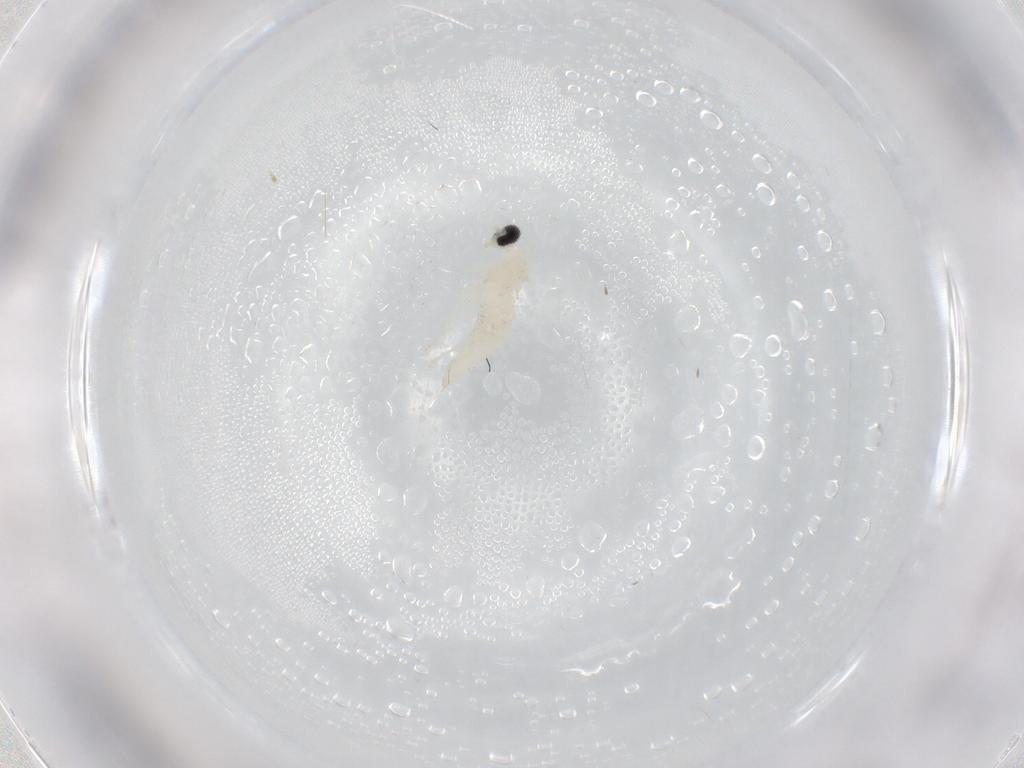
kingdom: Animalia
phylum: Arthropoda
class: Insecta
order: Diptera
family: Cecidomyiidae
